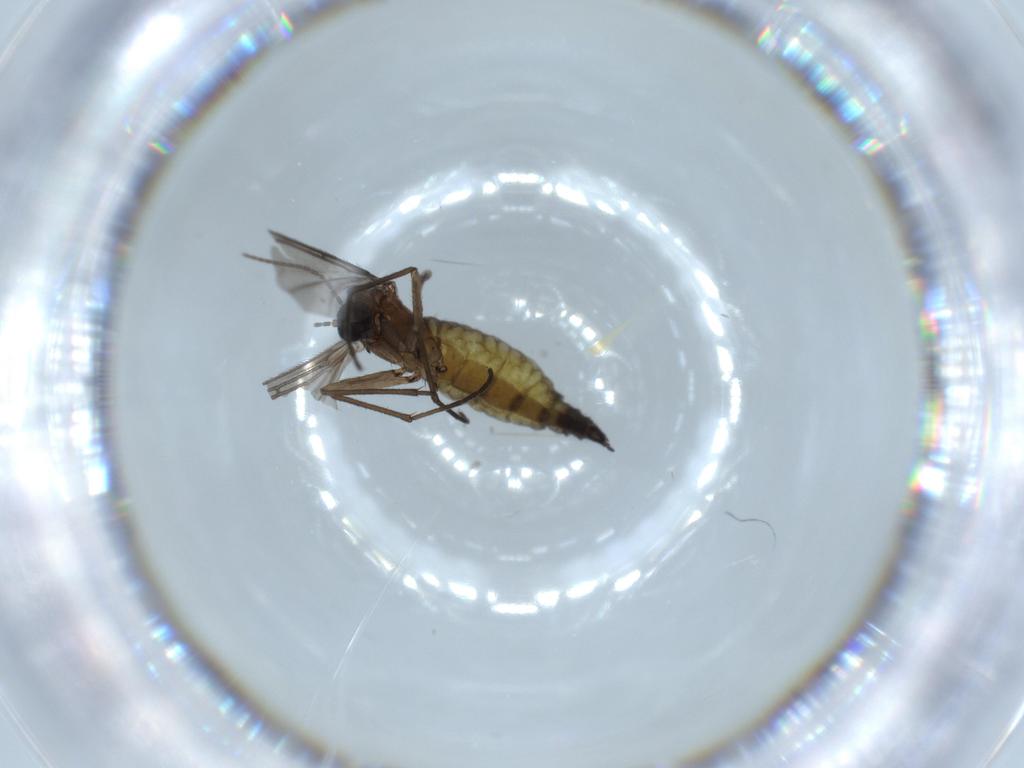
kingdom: Animalia
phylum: Arthropoda
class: Insecta
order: Diptera
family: Sciaridae
